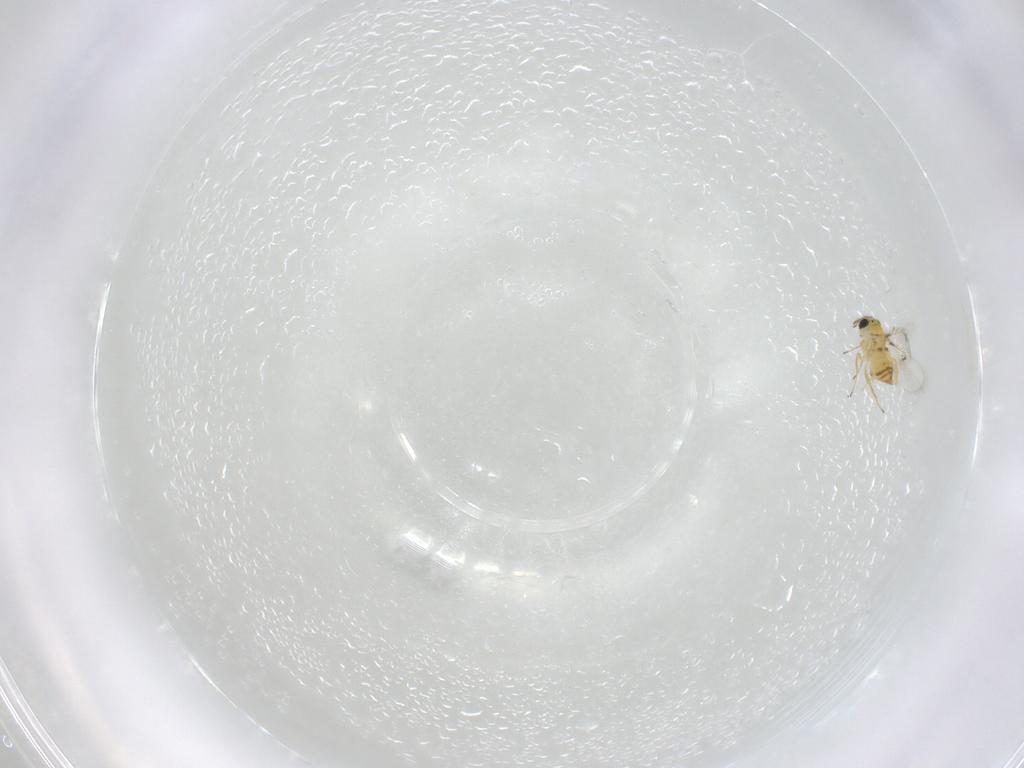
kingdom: Animalia
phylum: Arthropoda
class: Insecta
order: Hymenoptera
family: Trichogrammatidae
